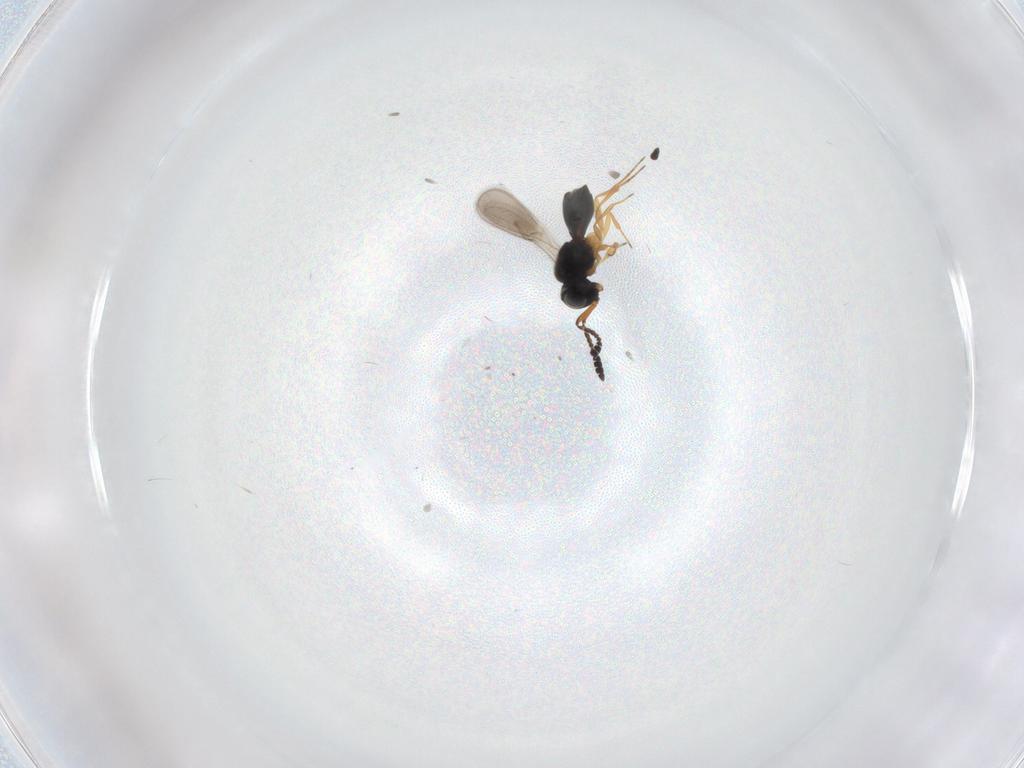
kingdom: Animalia
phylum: Arthropoda
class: Insecta
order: Hymenoptera
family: Scelionidae
